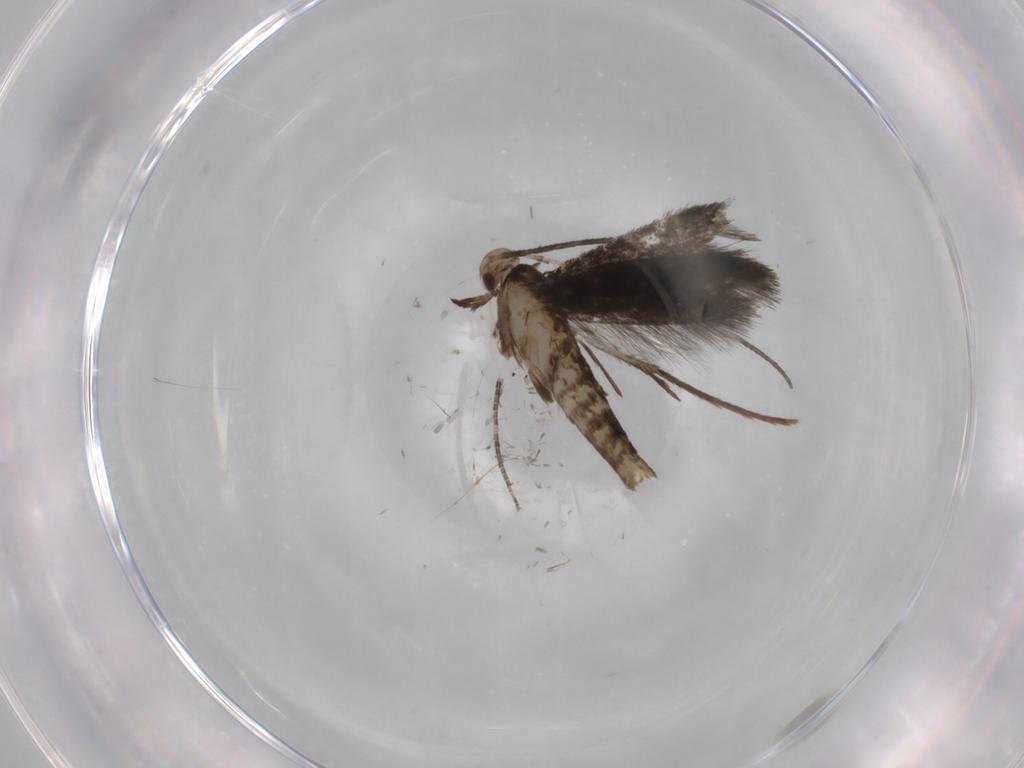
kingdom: Animalia
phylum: Arthropoda
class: Insecta
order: Lepidoptera
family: Gracillariidae
